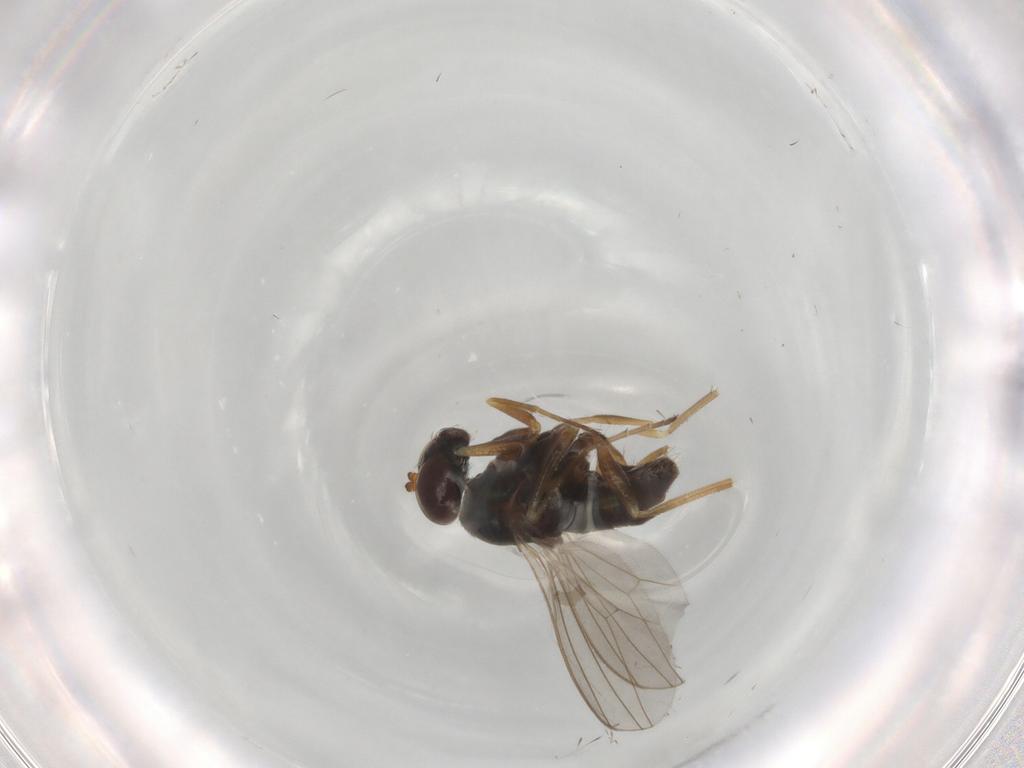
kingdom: Animalia
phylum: Arthropoda
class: Insecta
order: Diptera
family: Dolichopodidae
